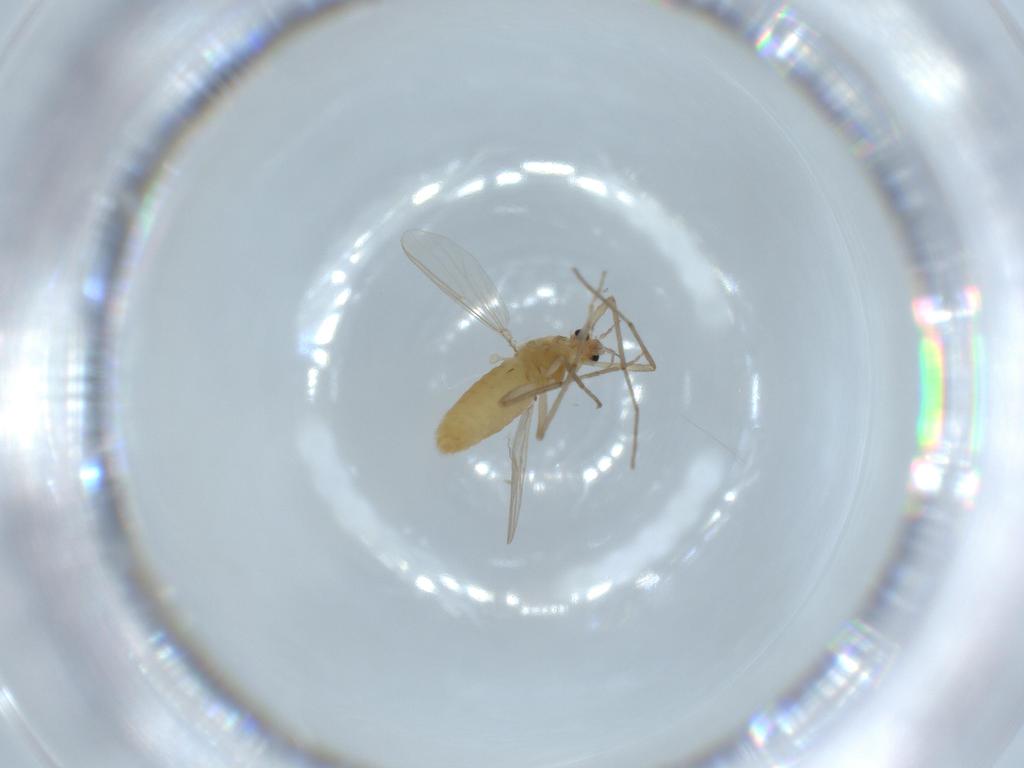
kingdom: Animalia
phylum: Arthropoda
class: Insecta
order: Diptera
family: Chironomidae
